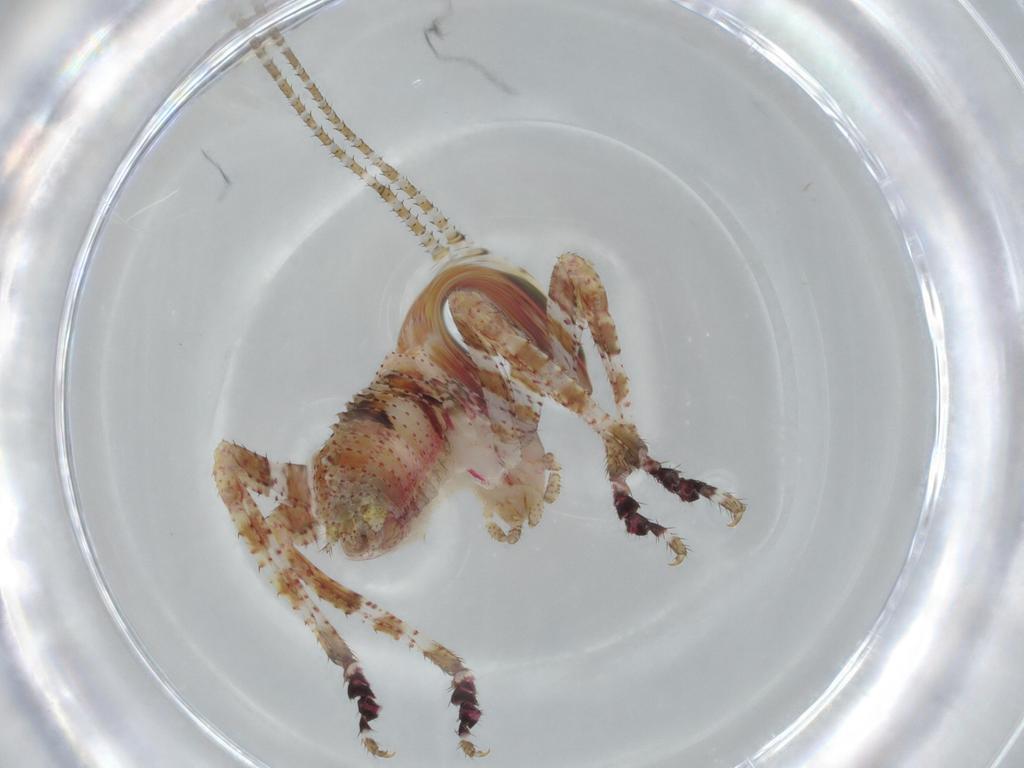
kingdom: Animalia
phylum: Arthropoda
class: Insecta
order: Orthoptera
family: Tettigoniidae
